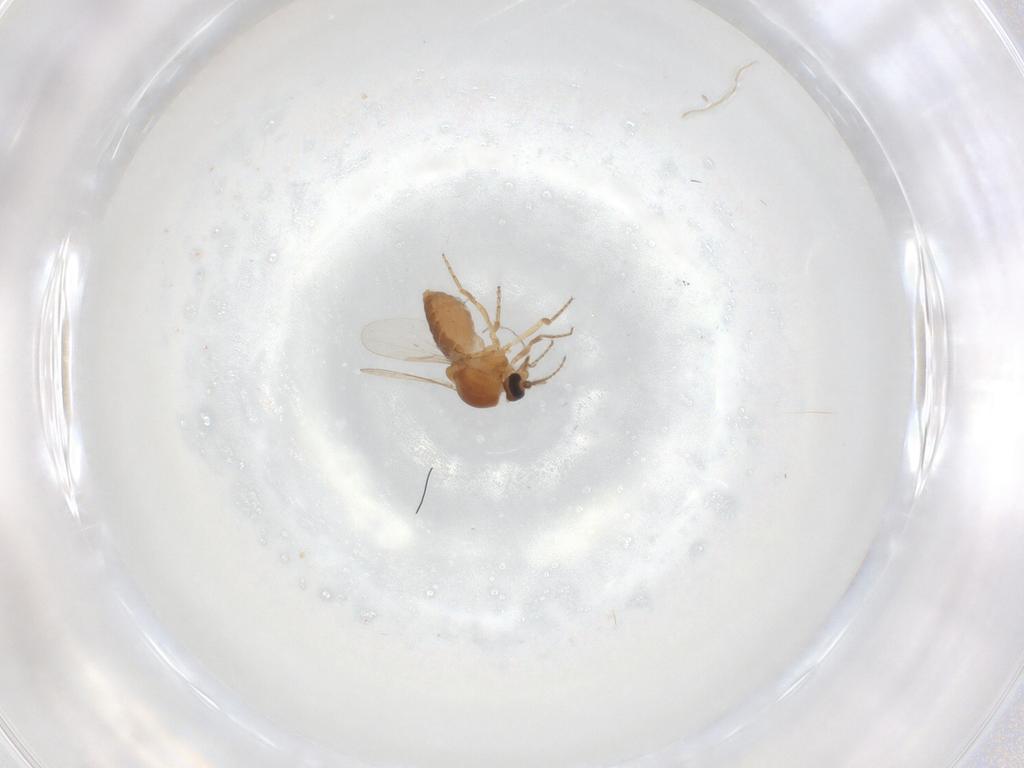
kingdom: Animalia
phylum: Arthropoda
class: Insecta
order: Diptera
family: Ceratopogonidae
